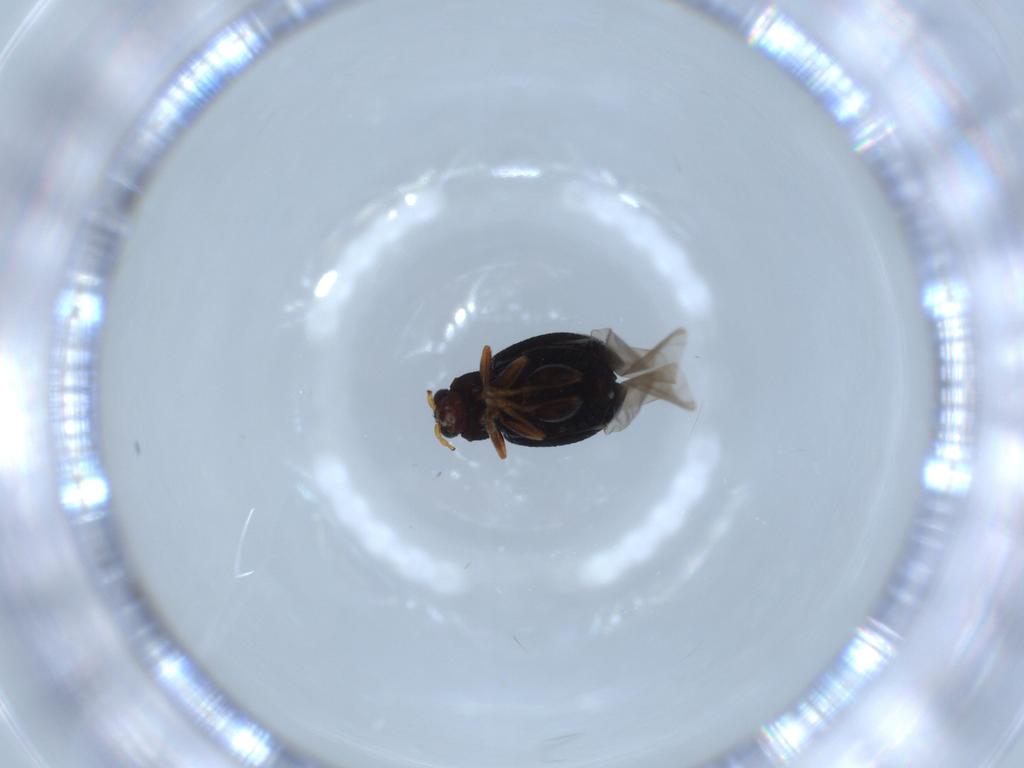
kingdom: Animalia
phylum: Arthropoda
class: Insecta
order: Coleoptera
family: Chrysomelidae
